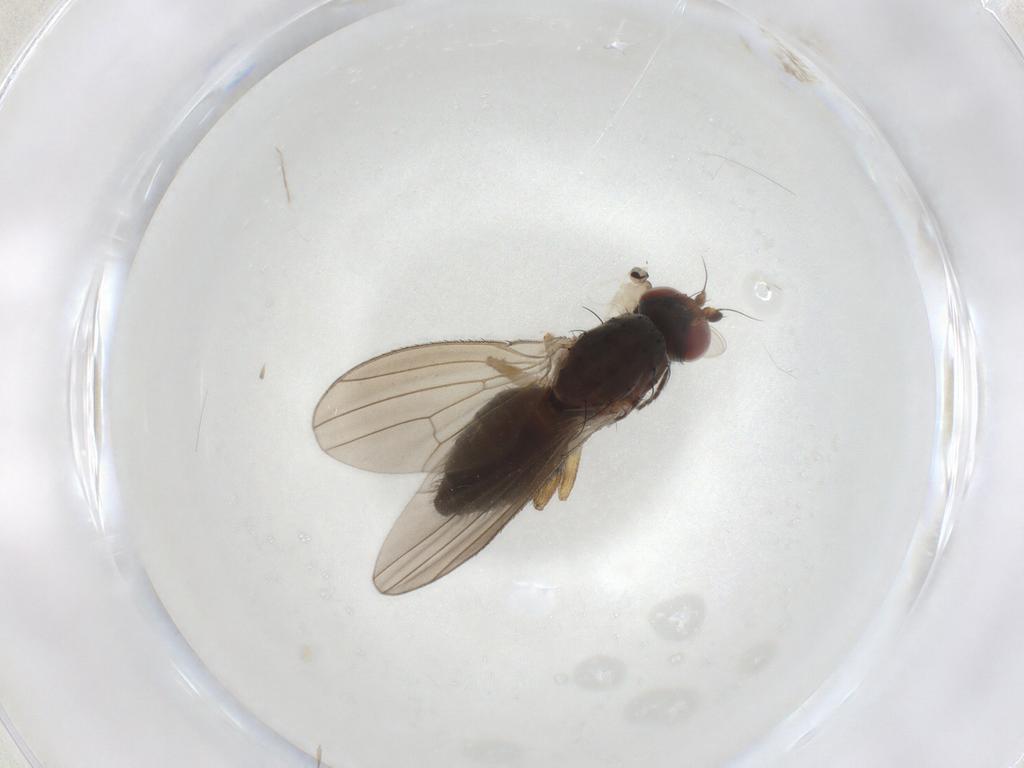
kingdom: Animalia
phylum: Arthropoda
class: Insecta
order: Diptera
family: Heleomyzidae
